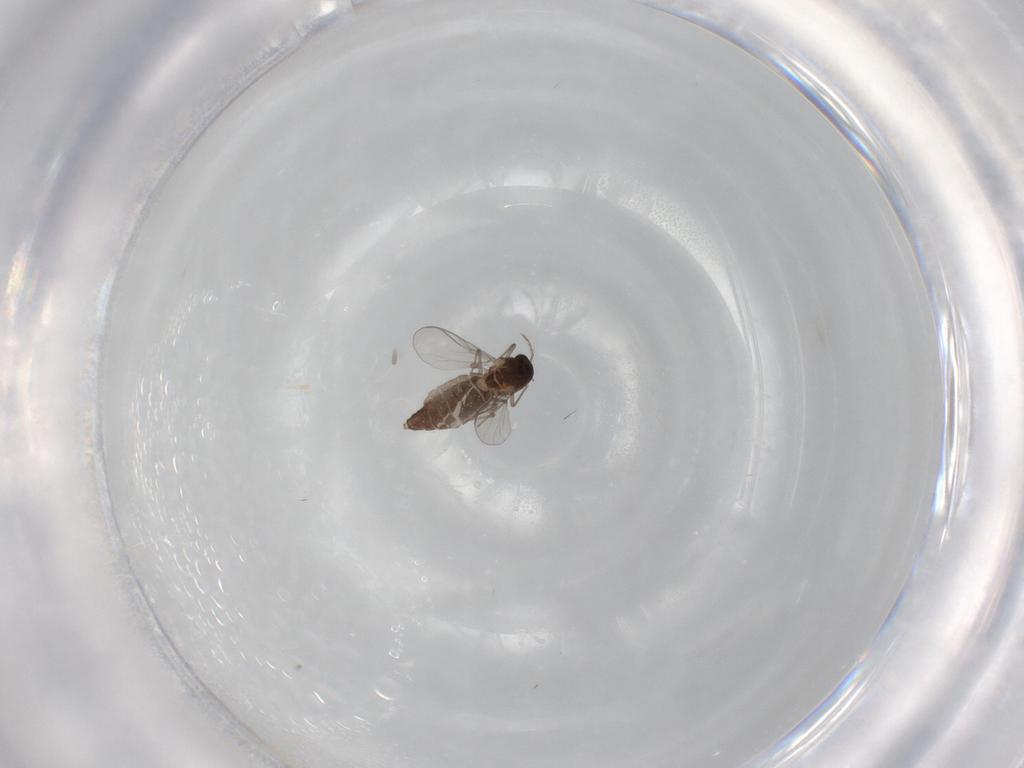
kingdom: Animalia
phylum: Arthropoda
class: Insecta
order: Diptera
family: Chironomidae
